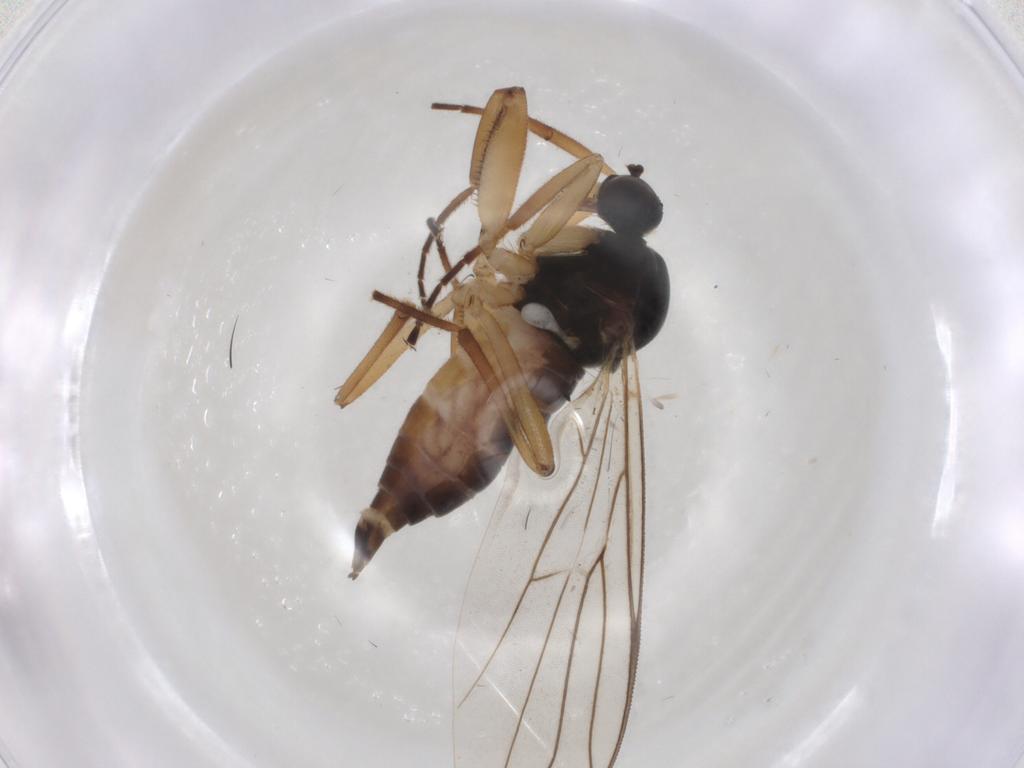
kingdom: Animalia
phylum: Arthropoda
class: Insecta
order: Diptera
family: Hybotidae
